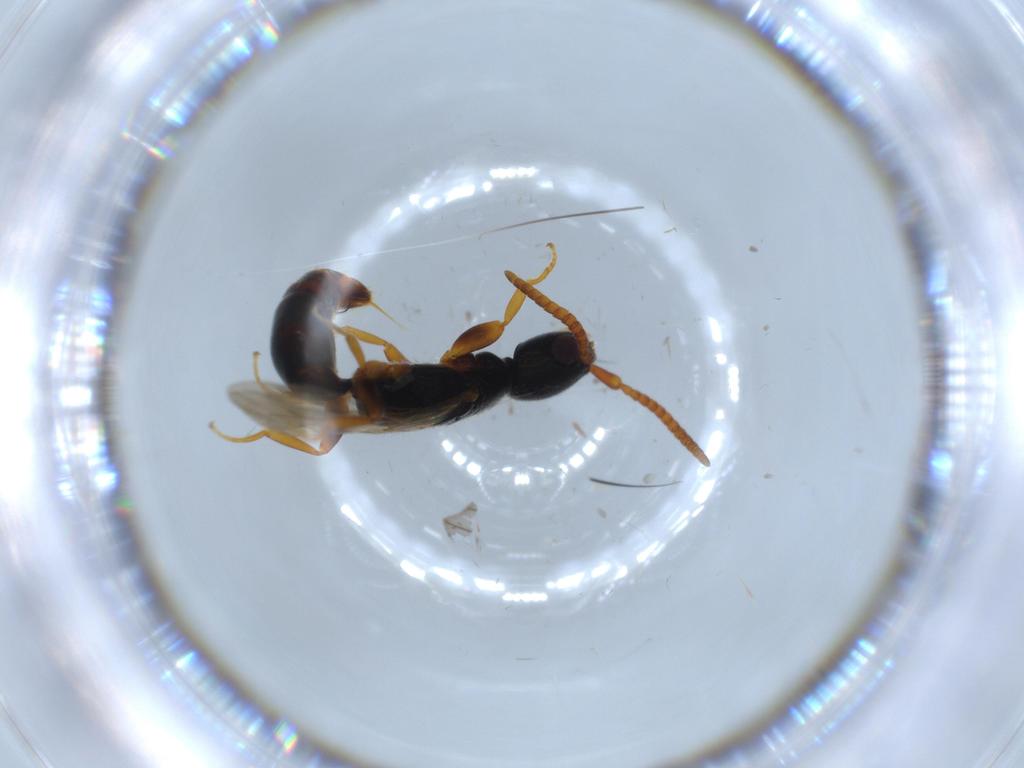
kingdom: Animalia
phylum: Arthropoda
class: Insecta
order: Hymenoptera
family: Bethylidae
